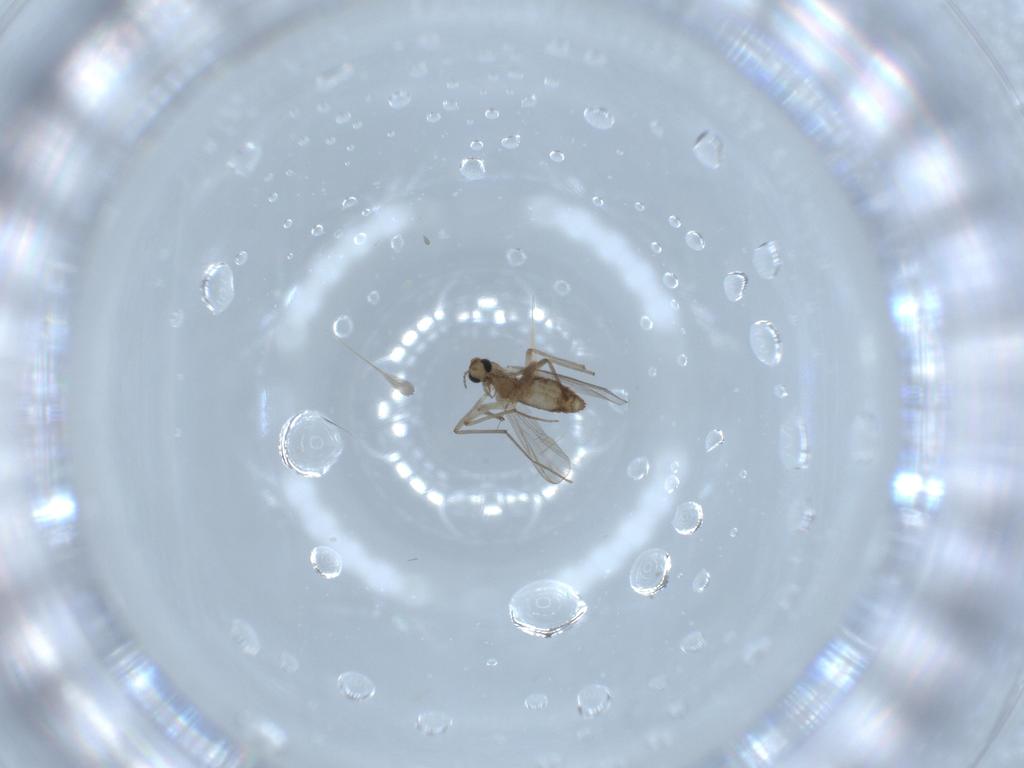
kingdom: Animalia
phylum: Arthropoda
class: Insecta
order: Diptera
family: Chironomidae
